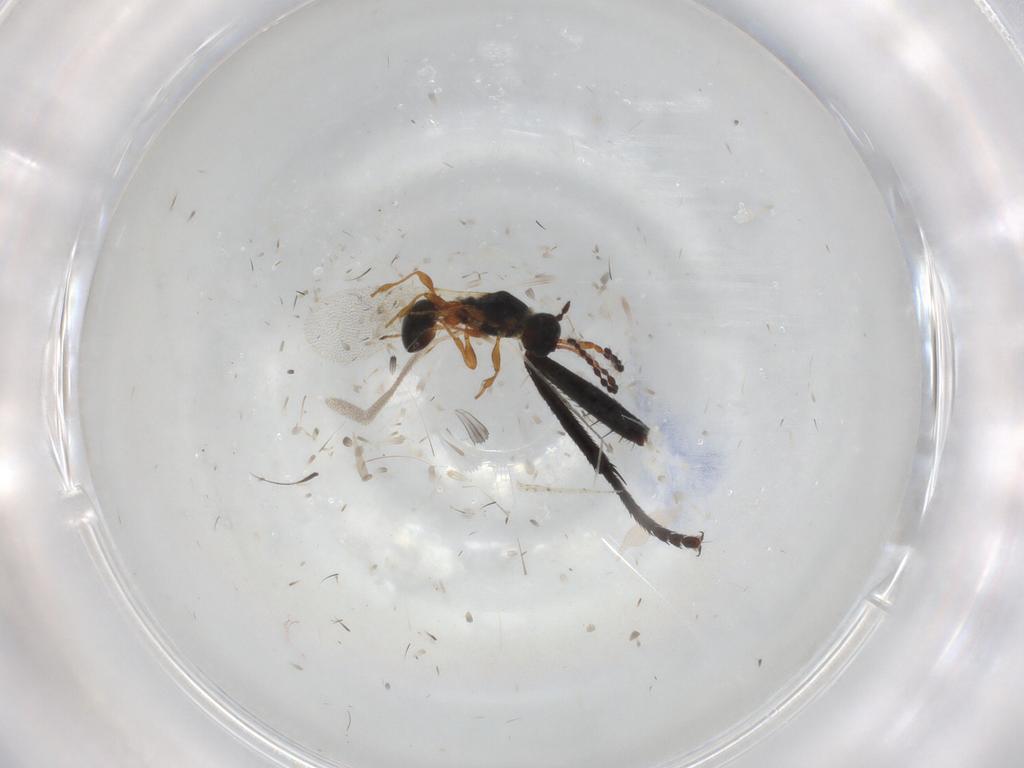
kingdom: Animalia
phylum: Arthropoda
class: Insecta
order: Hymenoptera
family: Diapriidae
